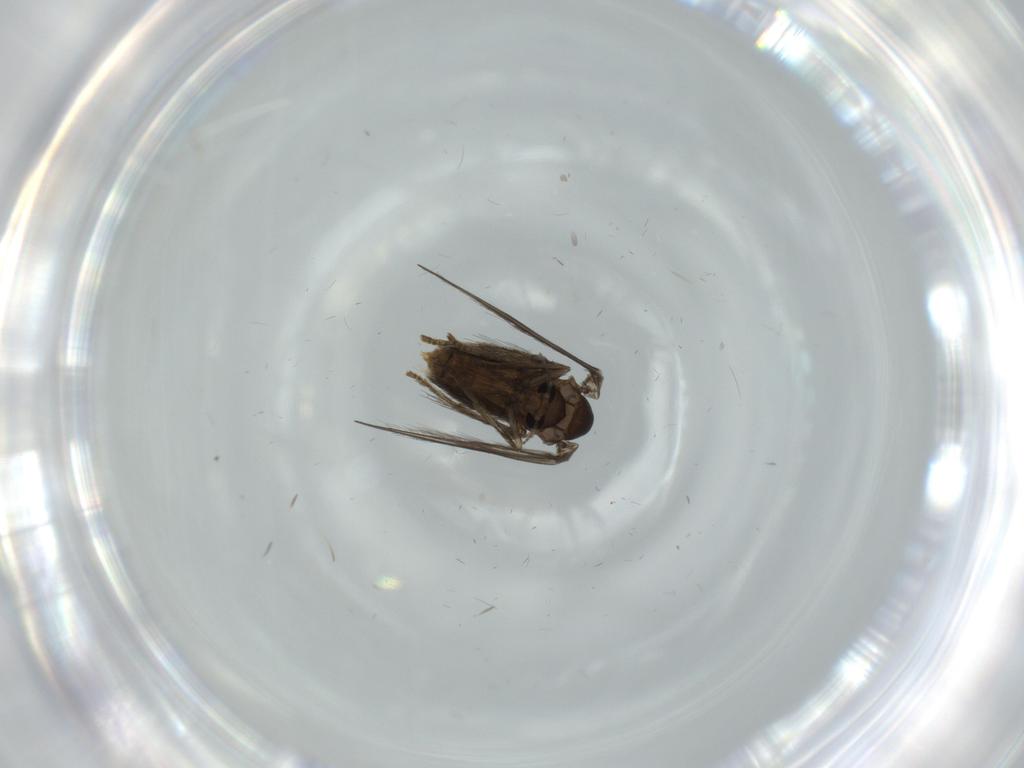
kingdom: Animalia
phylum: Arthropoda
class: Insecta
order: Diptera
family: Psychodidae
